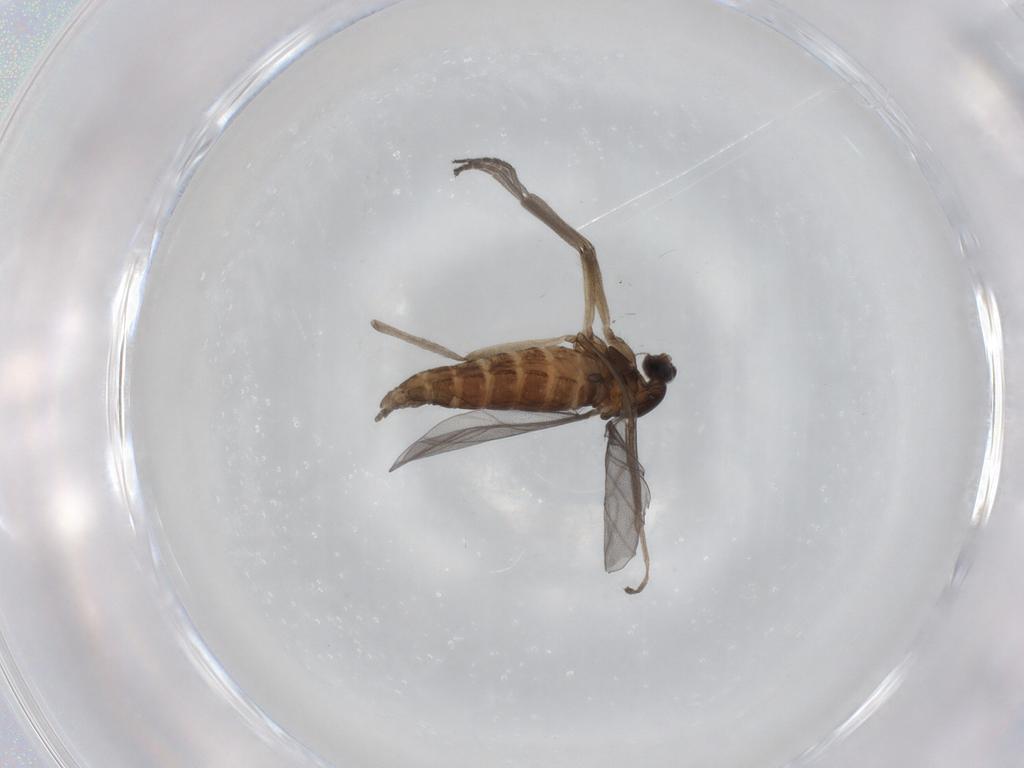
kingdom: Animalia
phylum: Arthropoda
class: Insecta
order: Diptera
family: Cecidomyiidae
